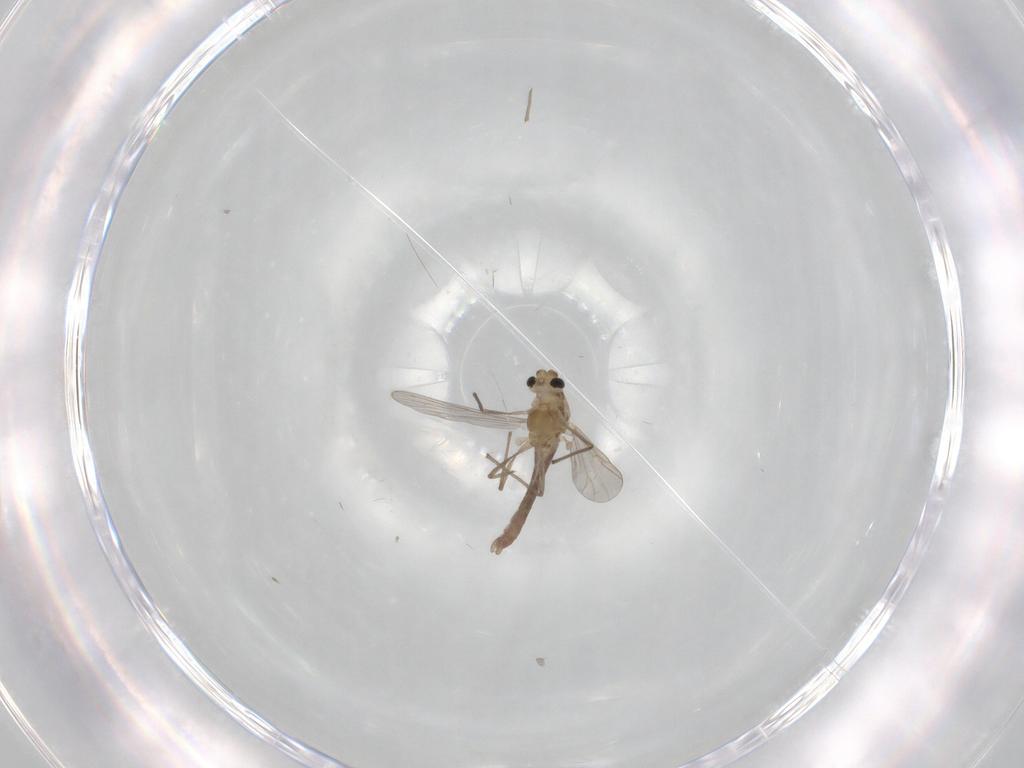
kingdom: Animalia
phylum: Arthropoda
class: Insecta
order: Diptera
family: Chironomidae
